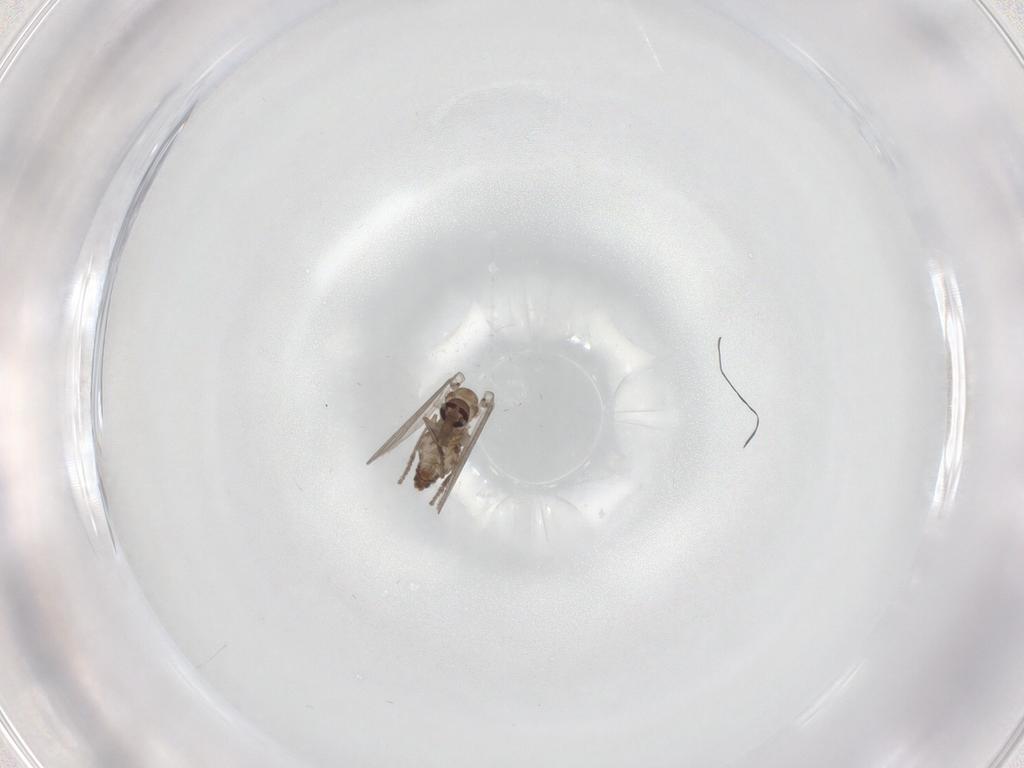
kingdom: Animalia
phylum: Arthropoda
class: Insecta
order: Diptera
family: Psychodidae
